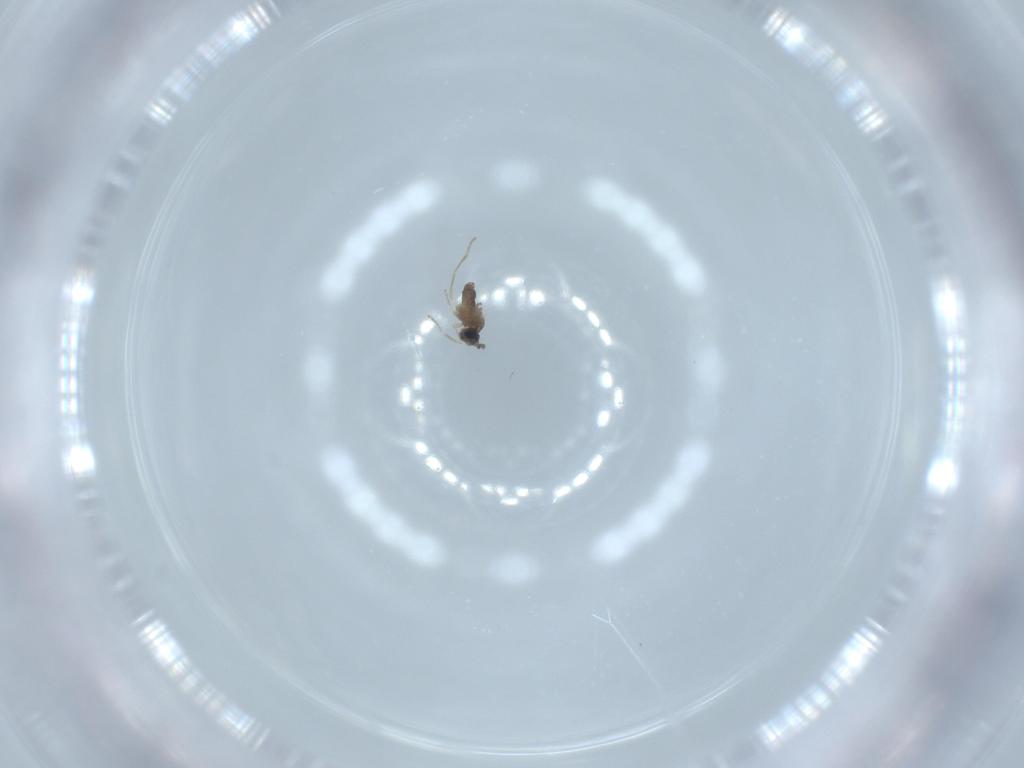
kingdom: Animalia
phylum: Arthropoda
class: Insecta
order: Diptera
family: Cecidomyiidae
